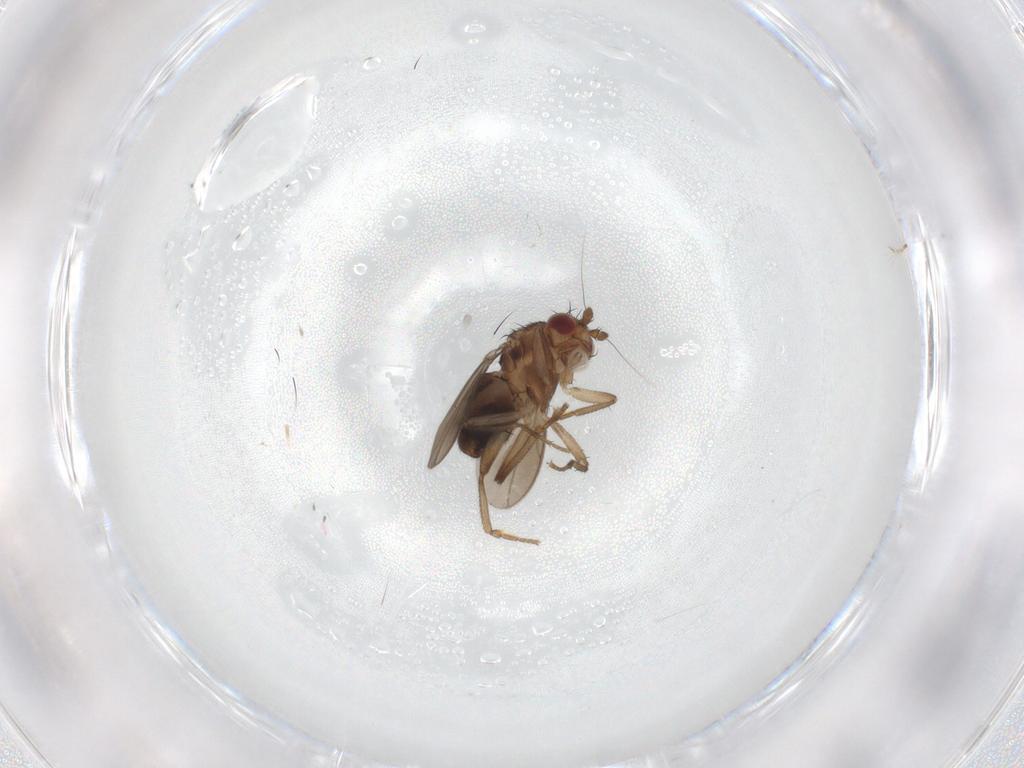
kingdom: Animalia
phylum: Arthropoda
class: Insecta
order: Diptera
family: Sphaeroceridae
